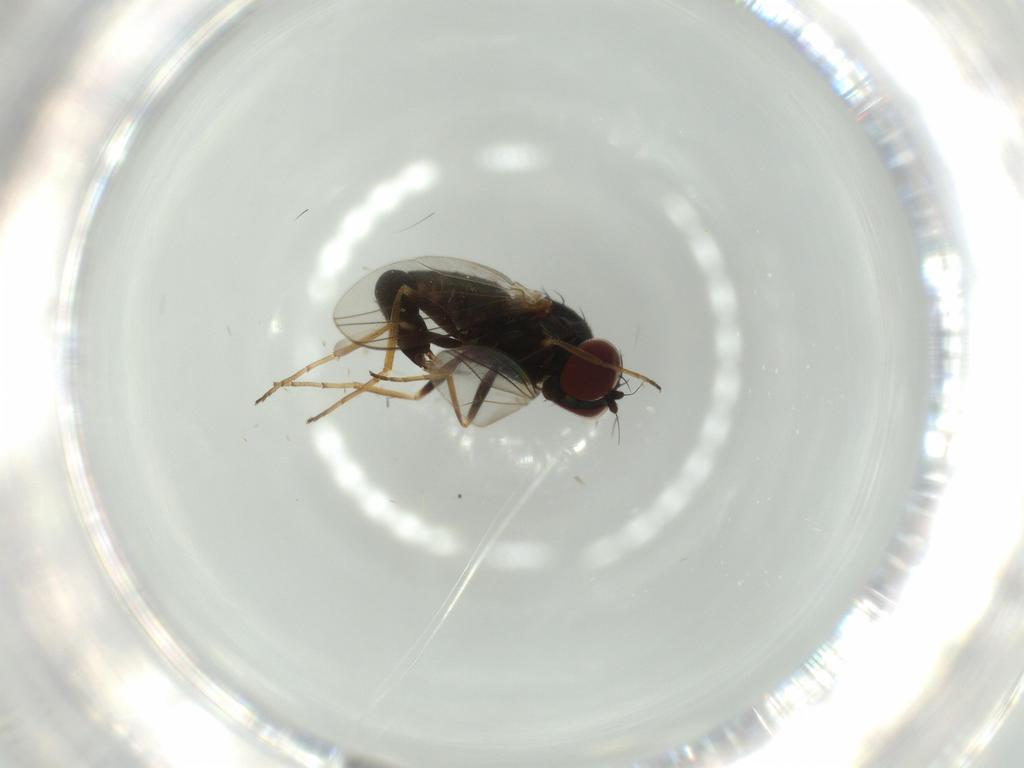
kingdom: Animalia
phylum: Arthropoda
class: Insecta
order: Diptera
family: Dolichopodidae
